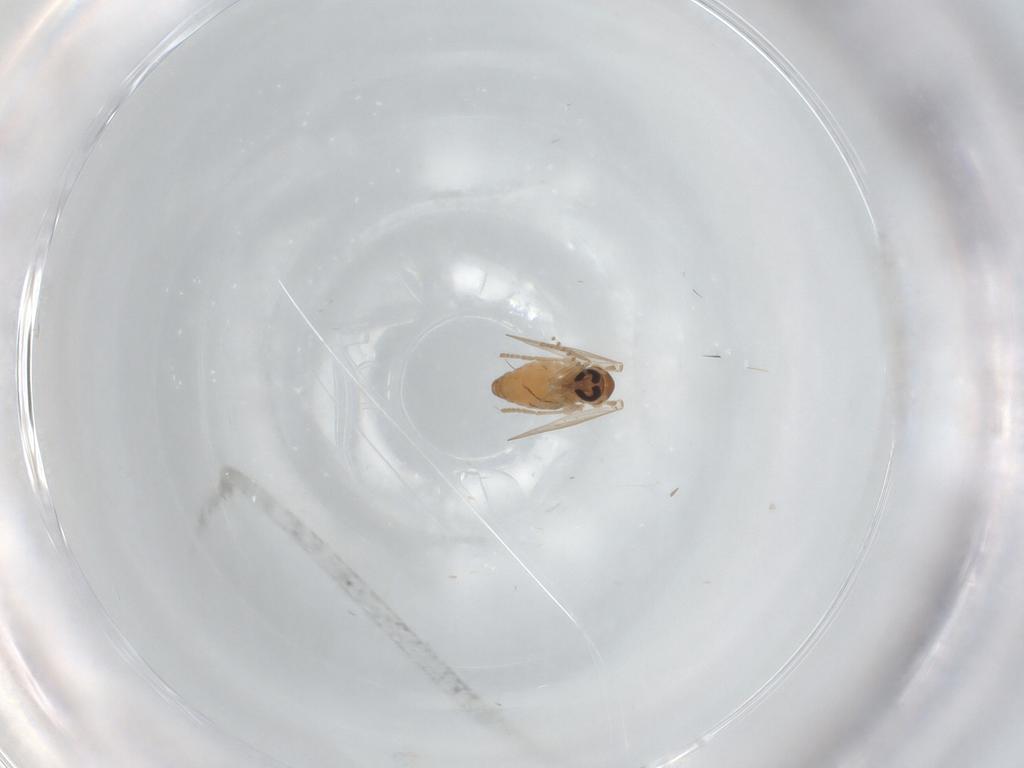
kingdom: Animalia
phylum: Arthropoda
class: Insecta
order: Diptera
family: Cecidomyiidae
